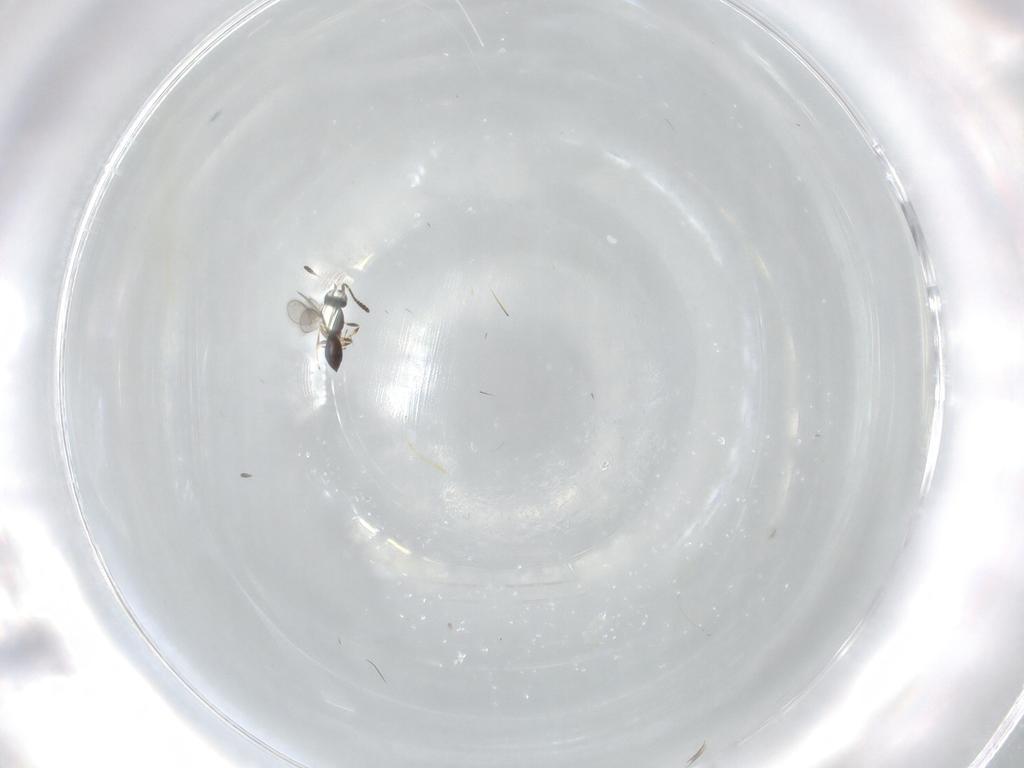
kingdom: Animalia
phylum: Arthropoda
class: Insecta
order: Hymenoptera
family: Scelionidae
